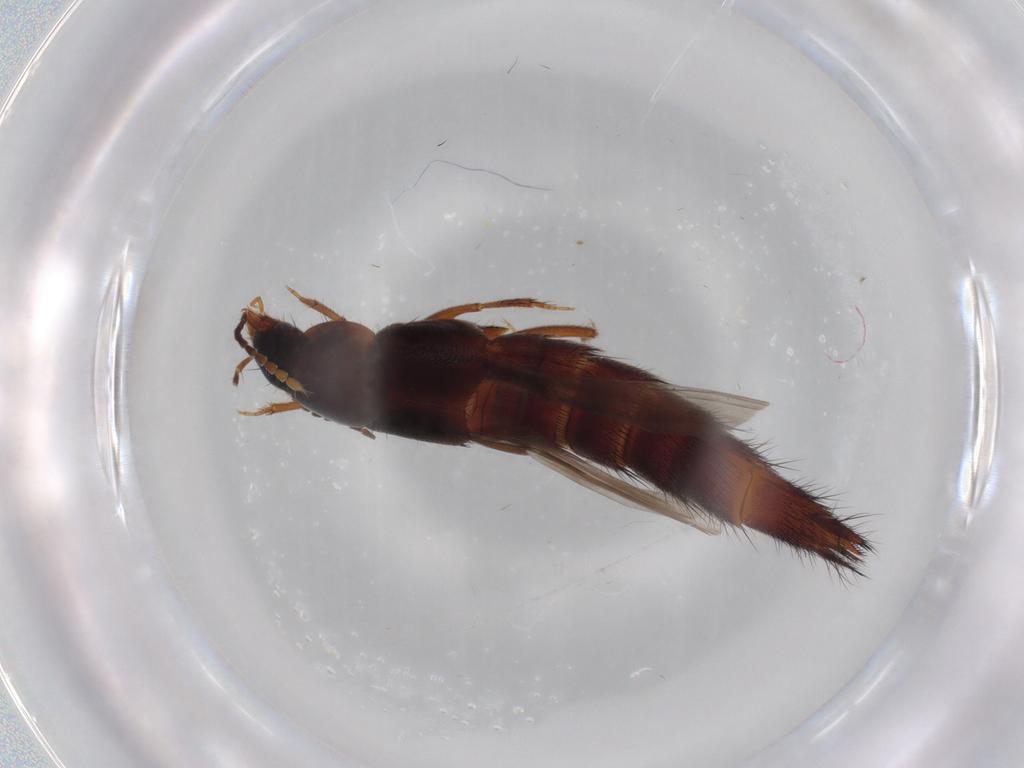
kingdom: Animalia
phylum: Arthropoda
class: Insecta
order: Coleoptera
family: Staphylinidae
